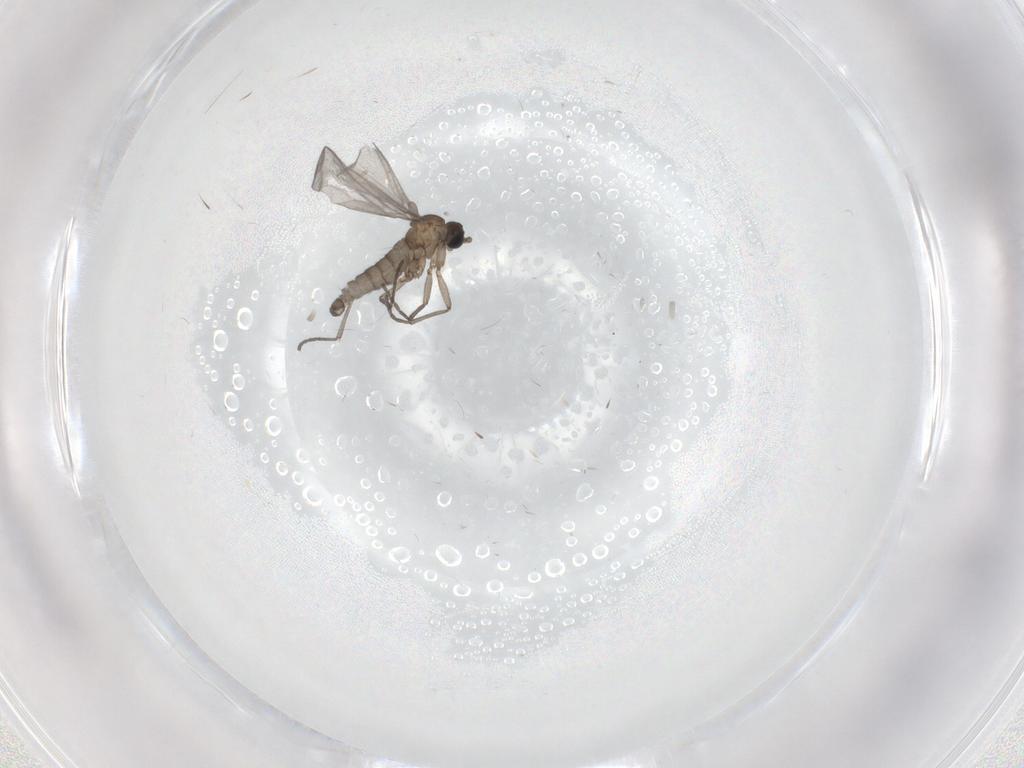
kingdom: Animalia
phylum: Arthropoda
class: Insecta
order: Diptera
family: Sciaridae
